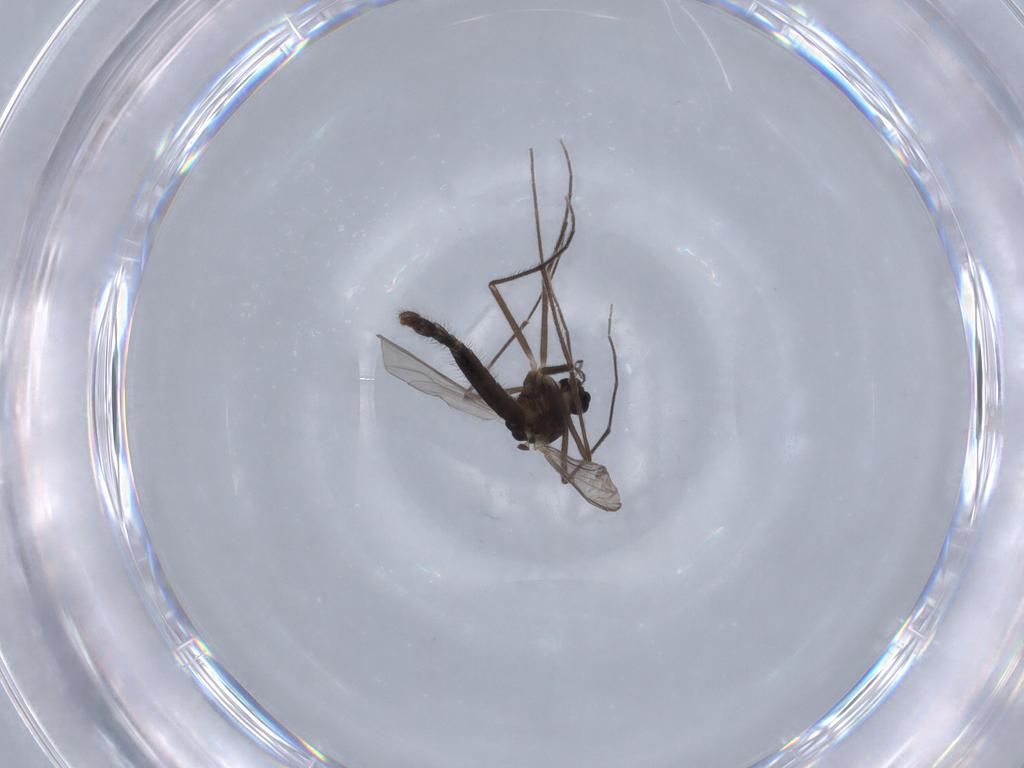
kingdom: Animalia
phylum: Arthropoda
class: Insecta
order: Diptera
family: Chironomidae
